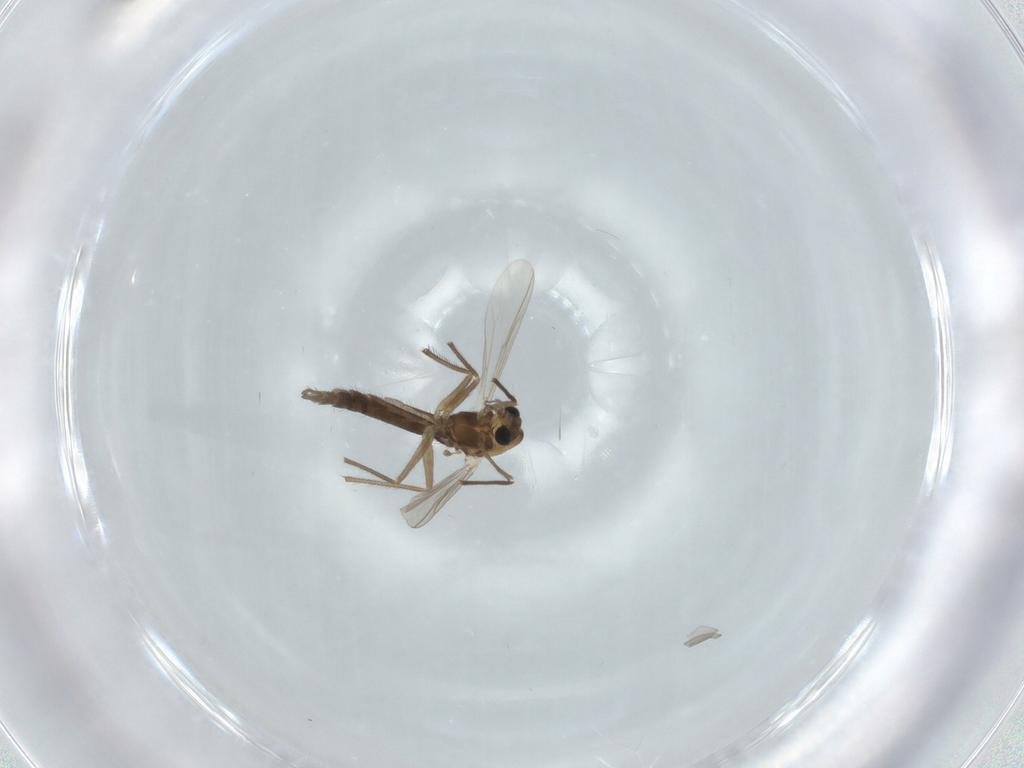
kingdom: Animalia
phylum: Arthropoda
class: Insecta
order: Diptera
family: Chironomidae
